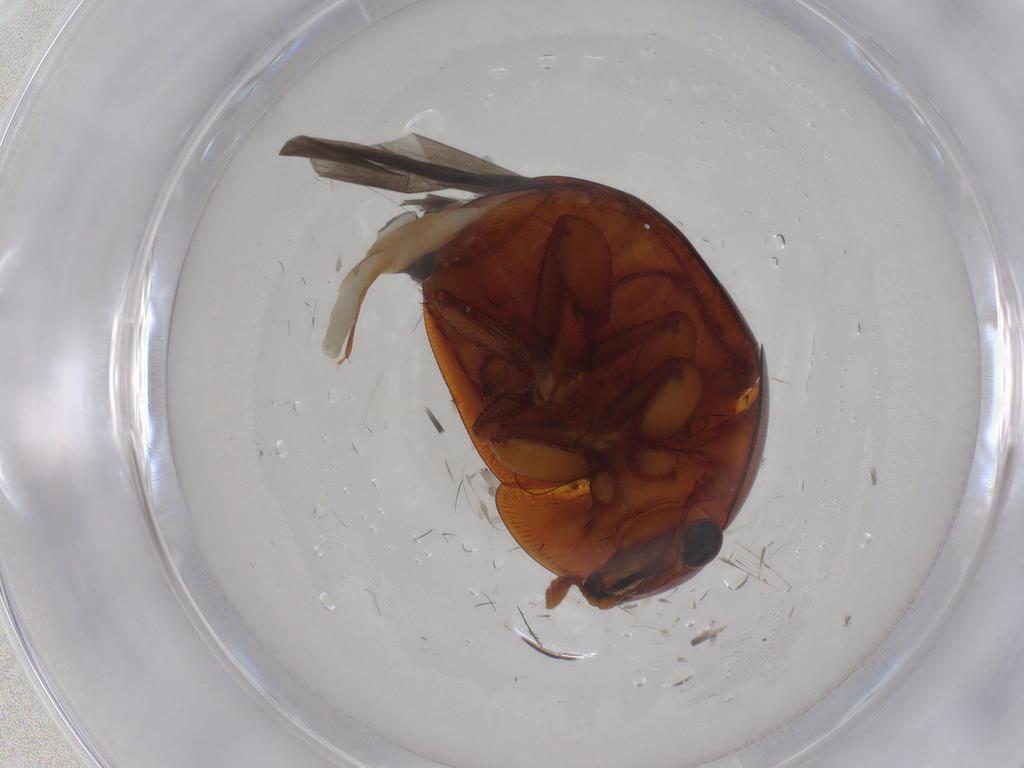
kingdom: Animalia
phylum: Arthropoda
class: Insecta
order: Coleoptera
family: Nitidulidae
